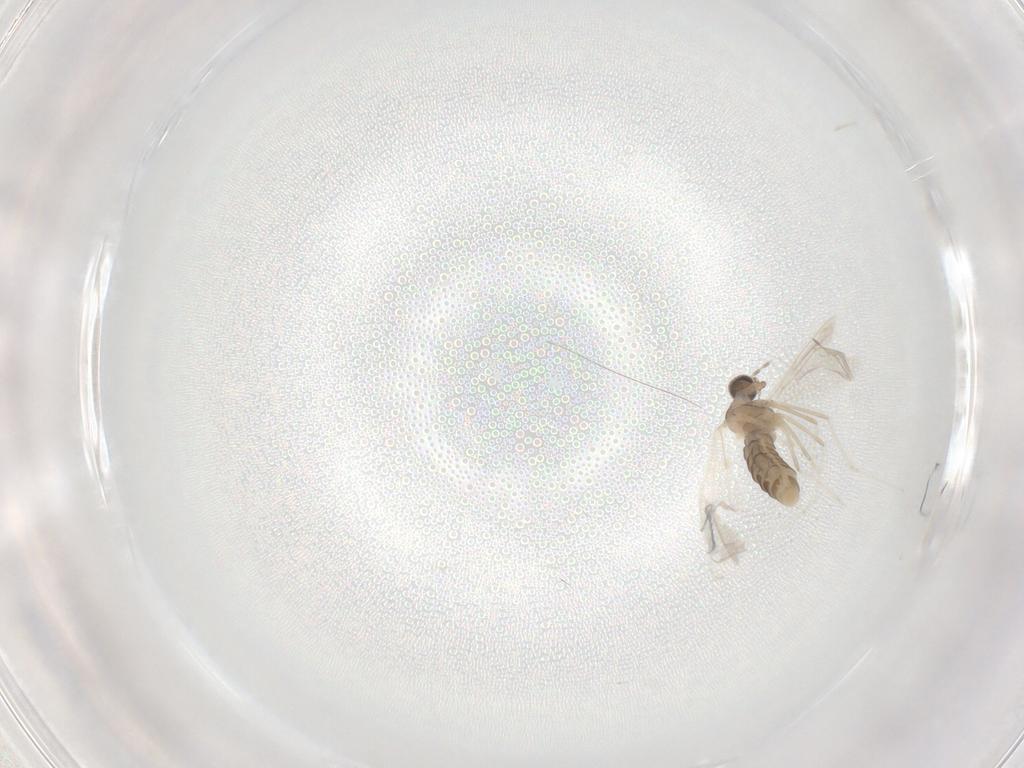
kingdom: Animalia
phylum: Arthropoda
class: Insecta
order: Diptera
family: Cecidomyiidae
